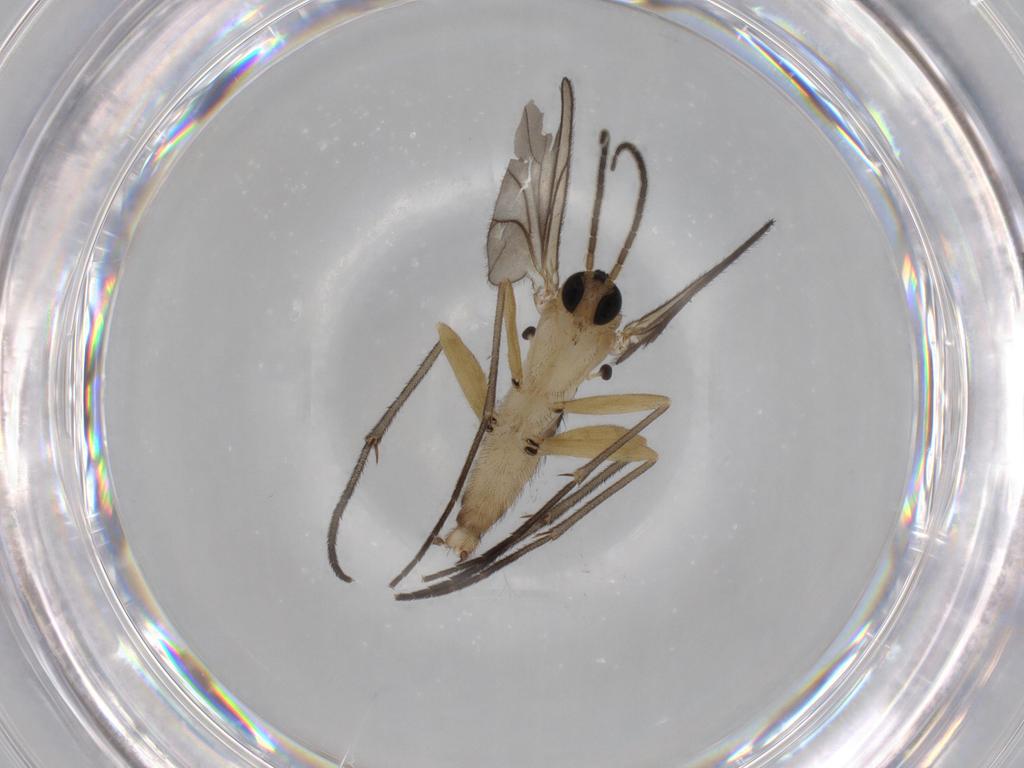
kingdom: Animalia
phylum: Arthropoda
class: Insecta
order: Diptera
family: Sciaridae
